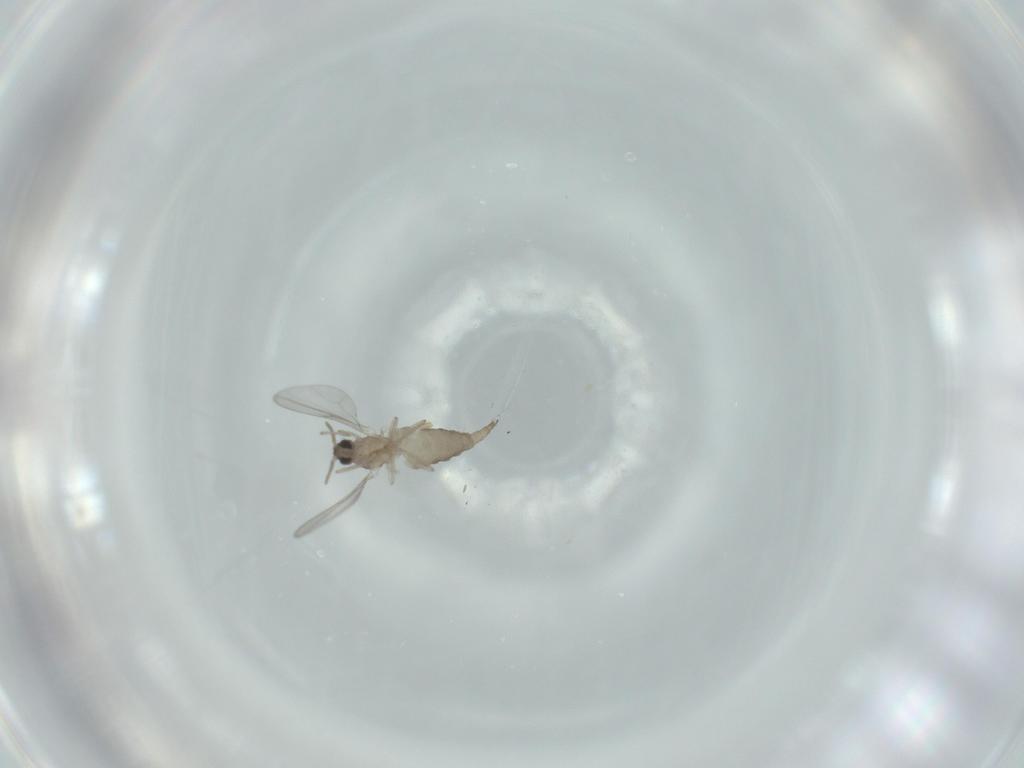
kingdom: Animalia
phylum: Arthropoda
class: Insecta
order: Diptera
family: Cecidomyiidae
